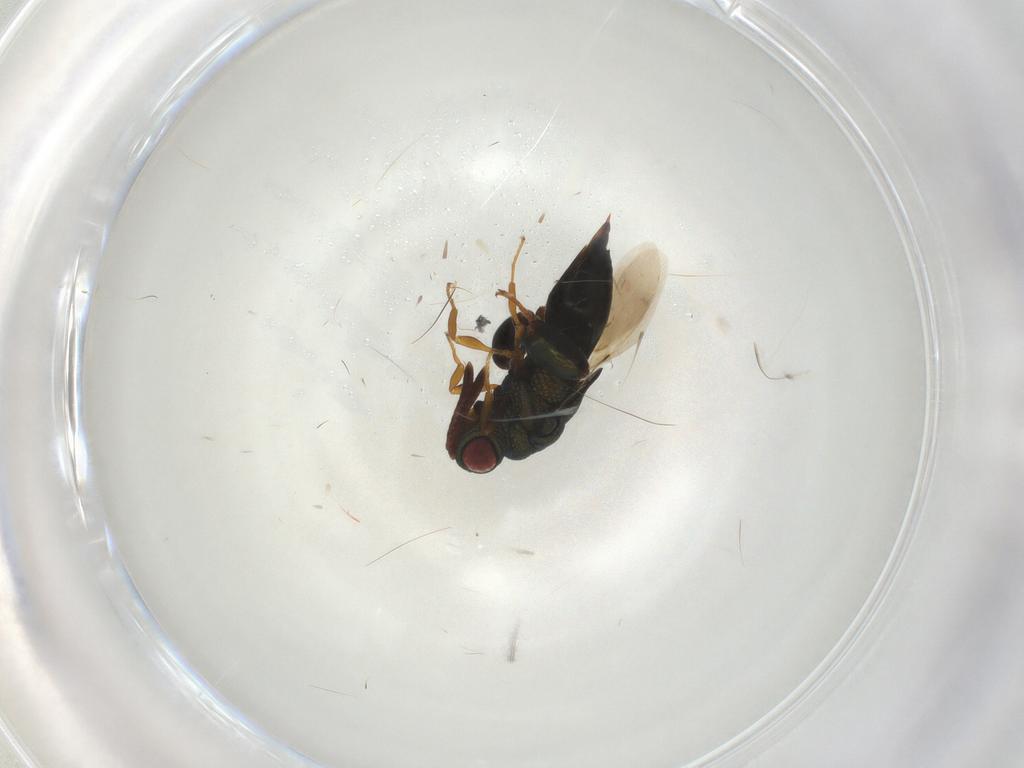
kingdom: Animalia
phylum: Arthropoda
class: Insecta
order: Hymenoptera
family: Chalcididae
